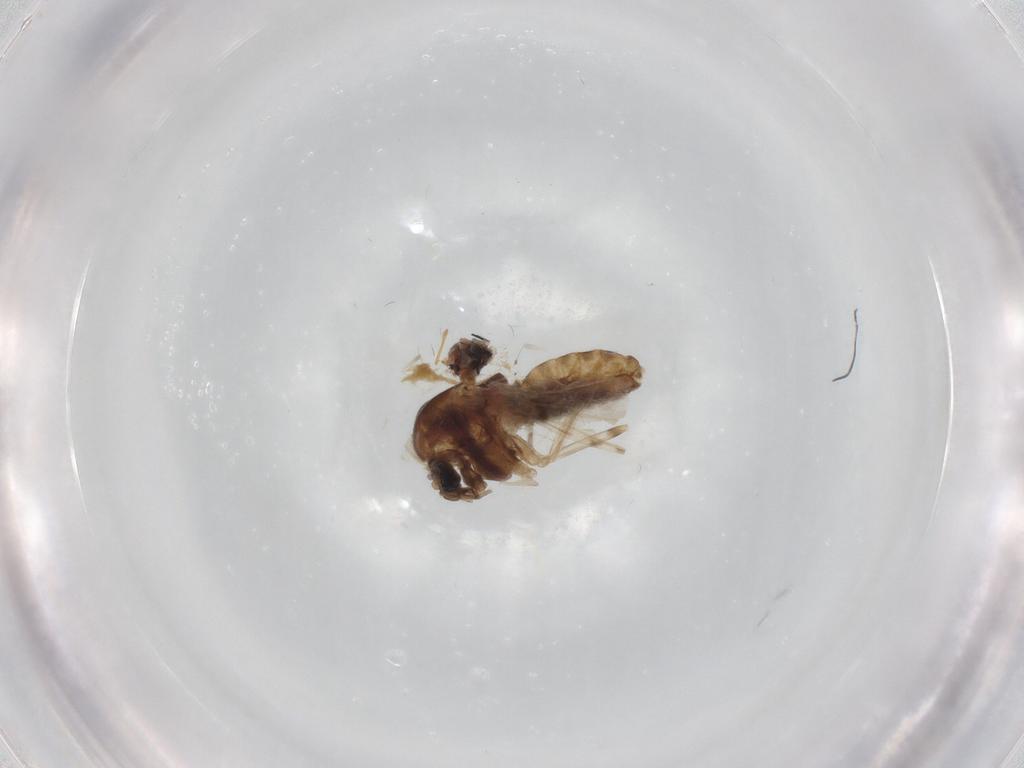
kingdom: Animalia
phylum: Arthropoda
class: Insecta
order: Diptera
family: Chironomidae
